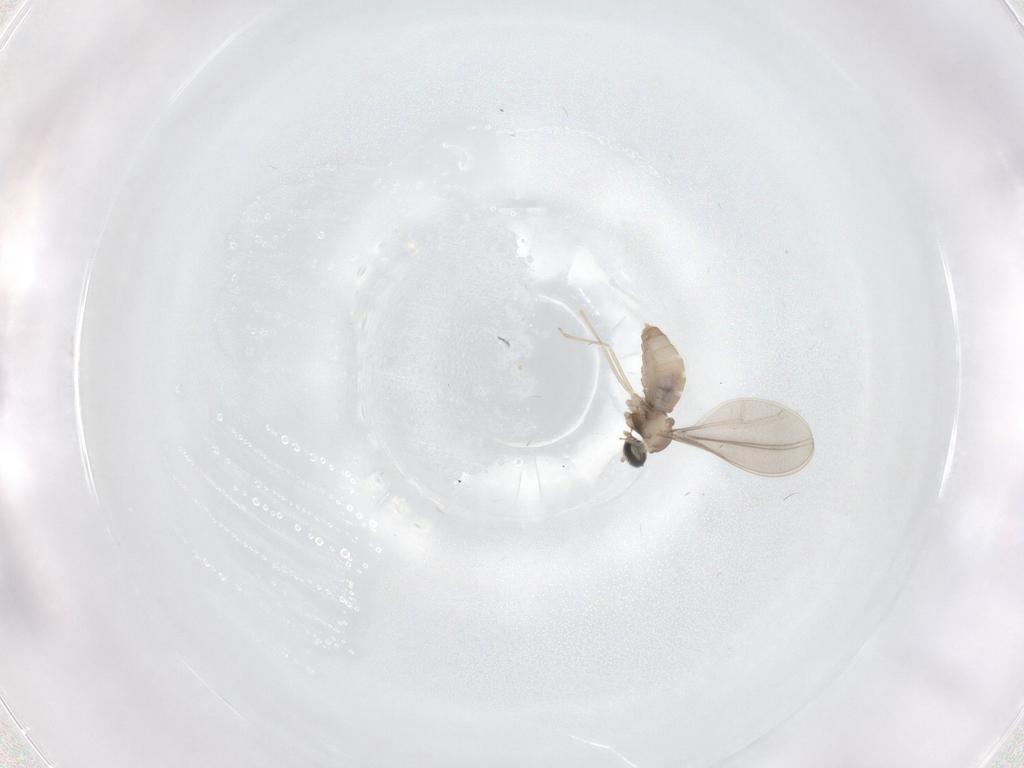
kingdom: Animalia
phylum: Arthropoda
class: Insecta
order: Diptera
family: Cecidomyiidae
